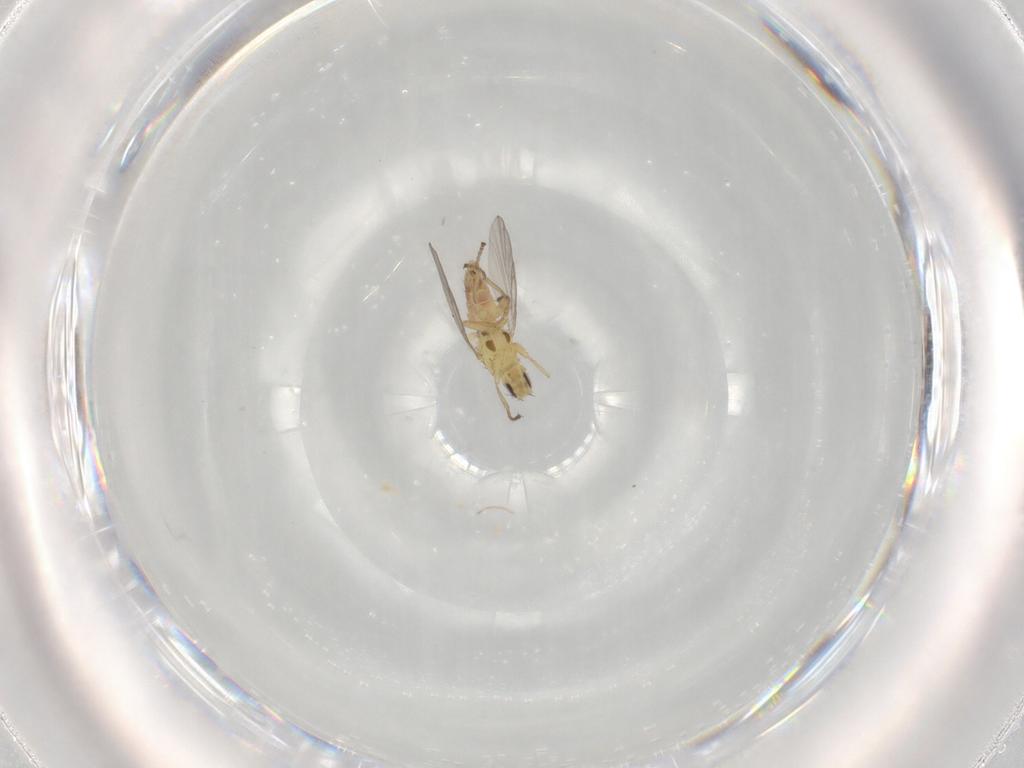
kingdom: Animalia
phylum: Arthropoda
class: Insecta
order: Diptera
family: Agromyzidae
